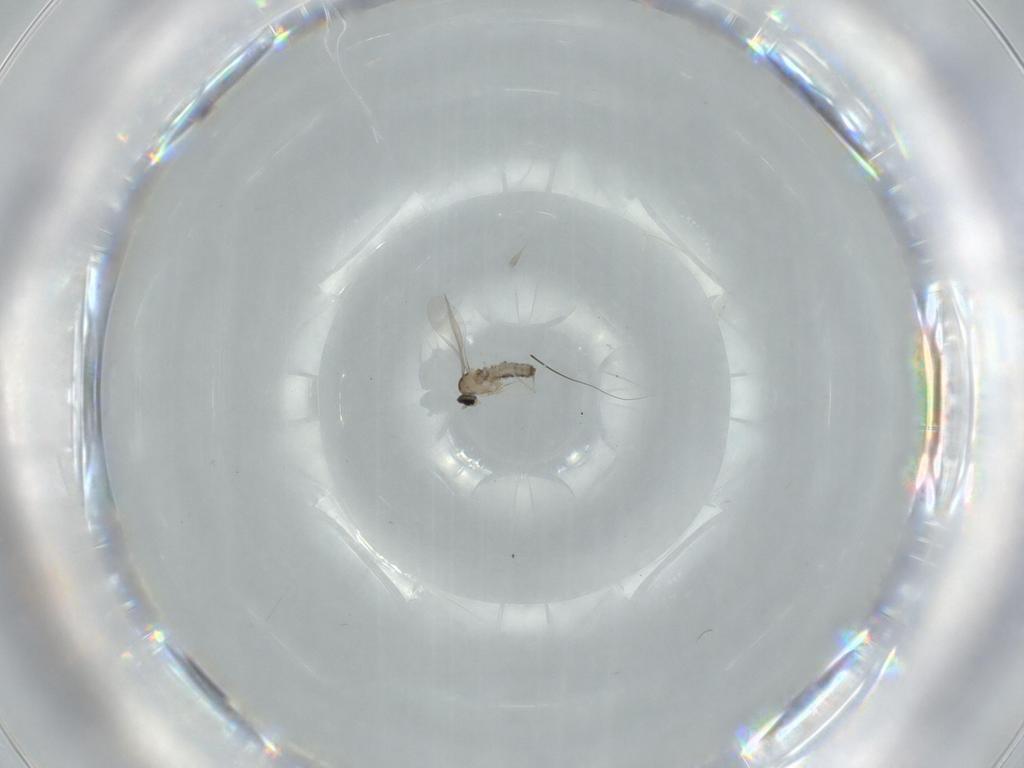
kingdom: Animalia
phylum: Arthropoda
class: Insecta
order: Diptera
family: Cecidomyiidae
